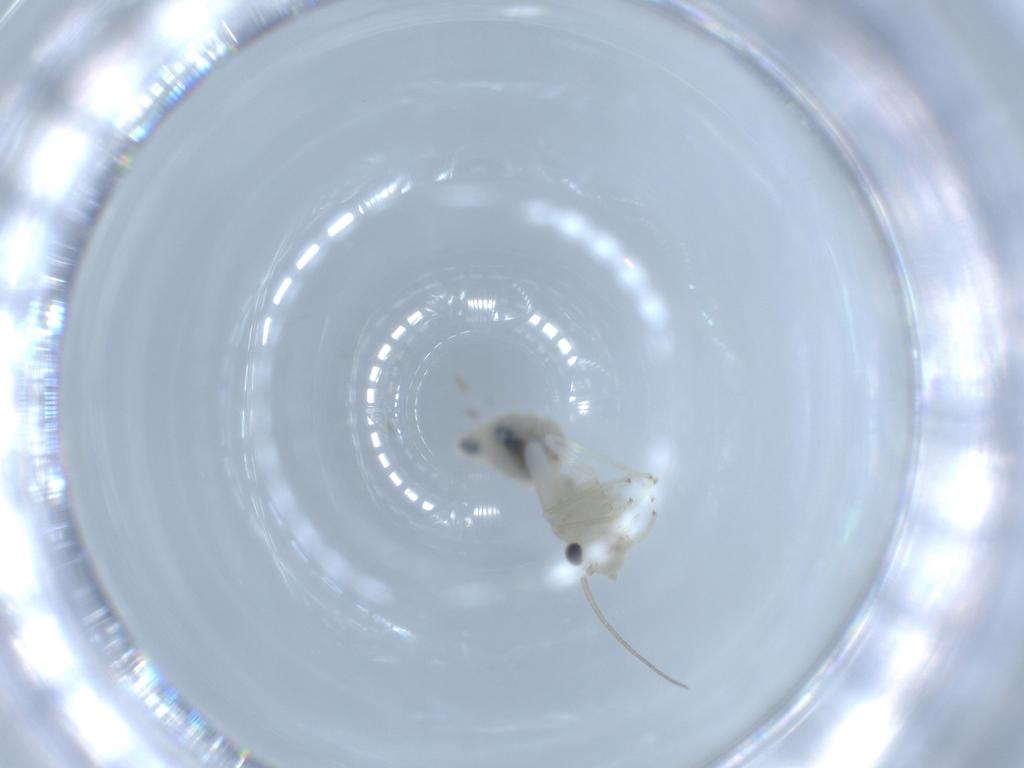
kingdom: Animalia
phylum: Arthropoda
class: Insecta
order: Psocodea
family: Caeciliusidae
